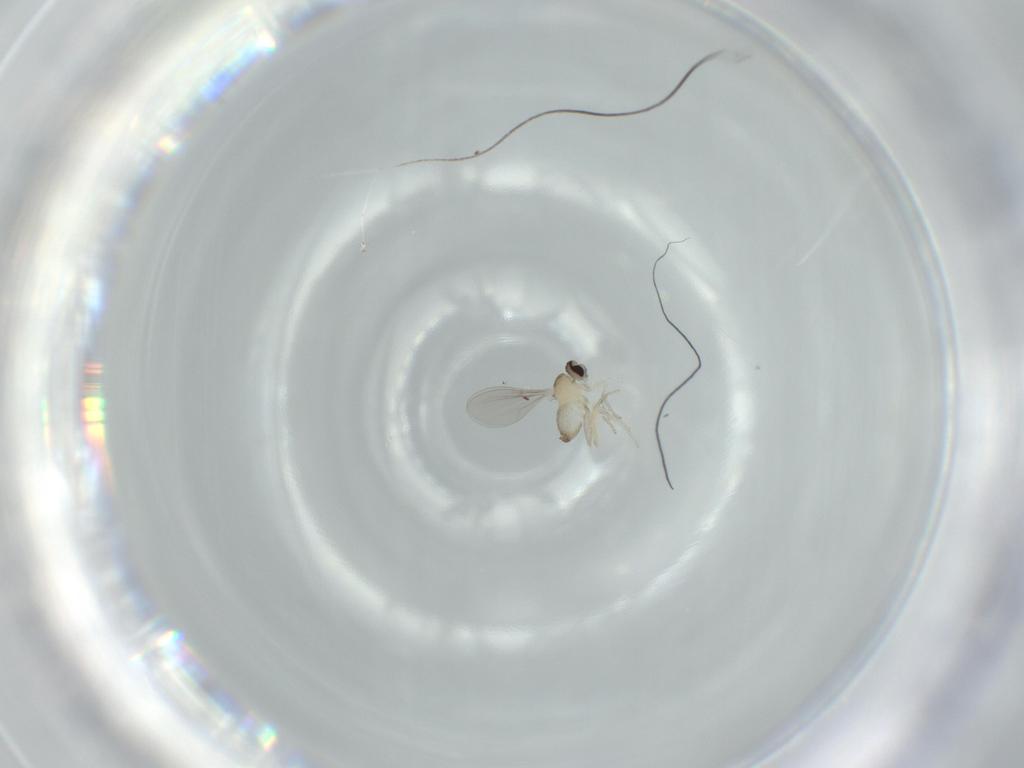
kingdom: Animalia
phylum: Arthropoda
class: Insecta
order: Diptera
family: Cecidomyiidae
